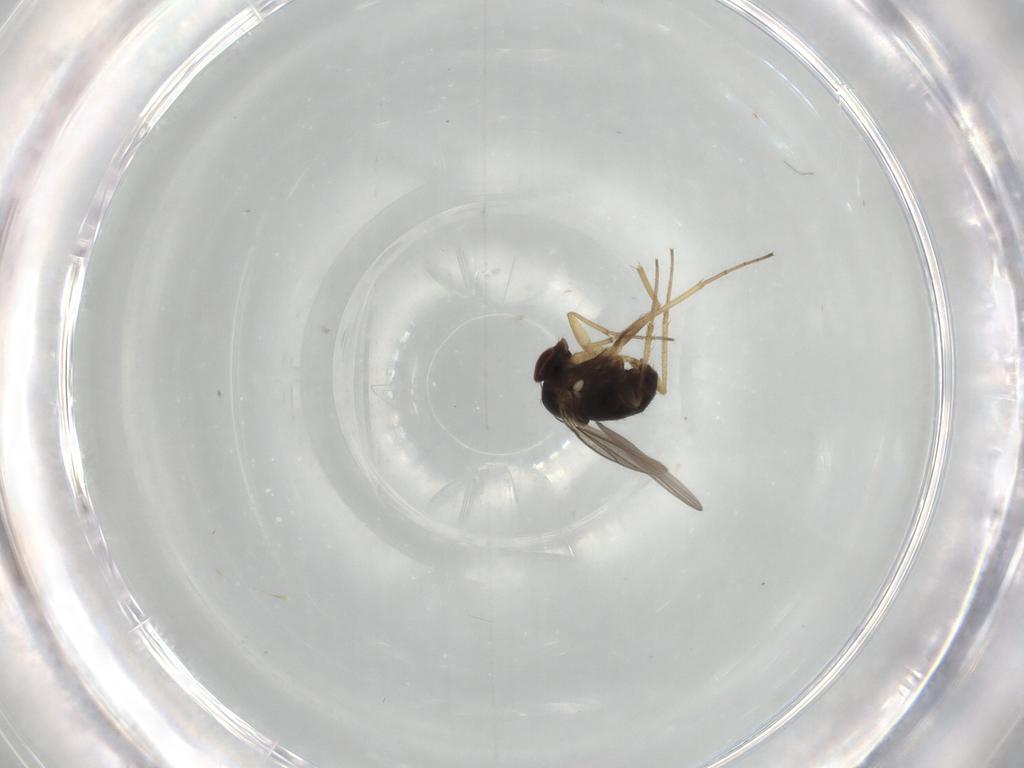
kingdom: Animalia
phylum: Arthropoda
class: Insecta
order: Diptera
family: Dolichopodidae
